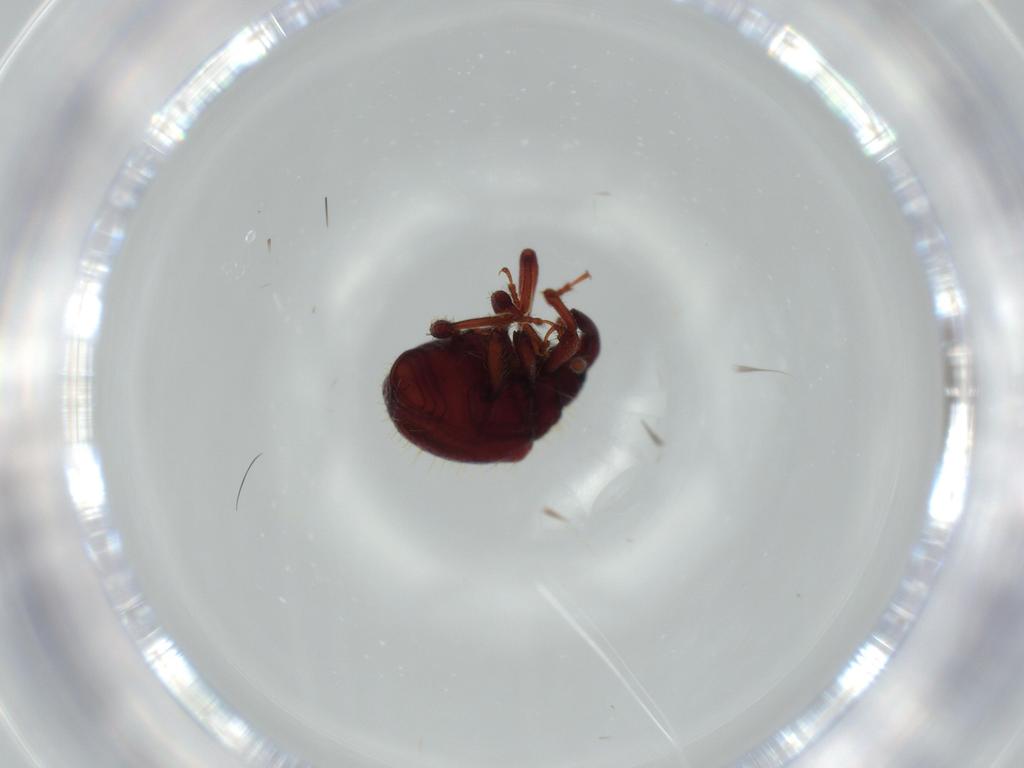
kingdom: Animalia
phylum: Arthropoda
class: Insecta
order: Coleoptera
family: Curculionidae
